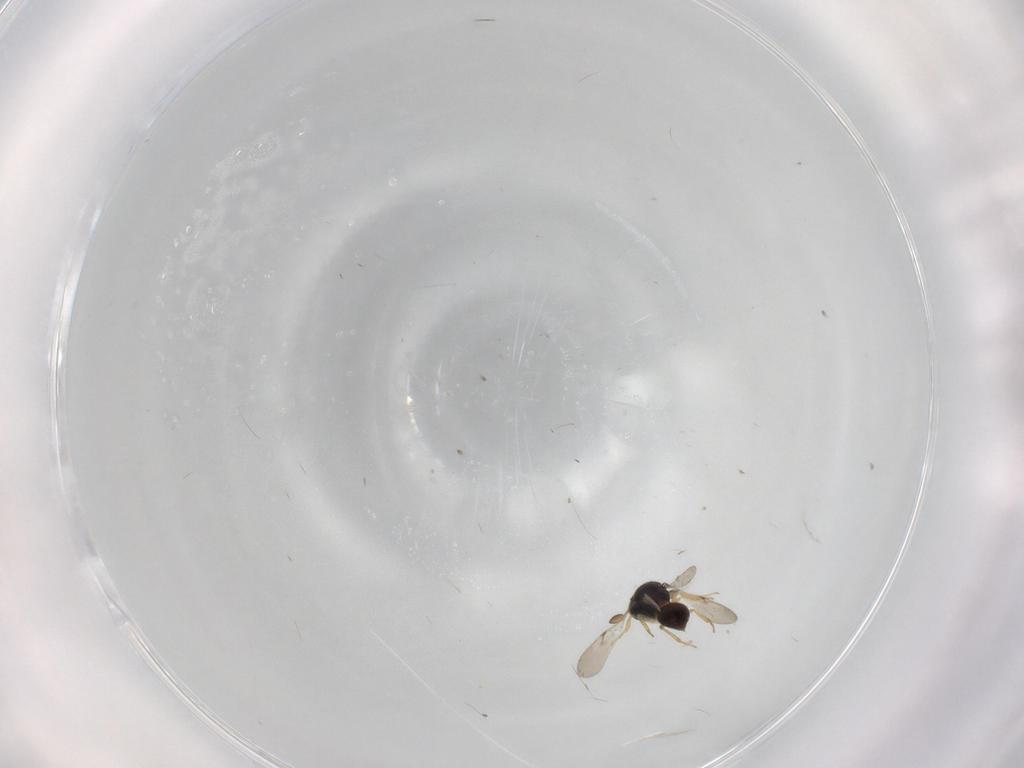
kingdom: Animalia
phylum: Arthropoda
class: Insecta
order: Hymenoptera
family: Scelionidae
